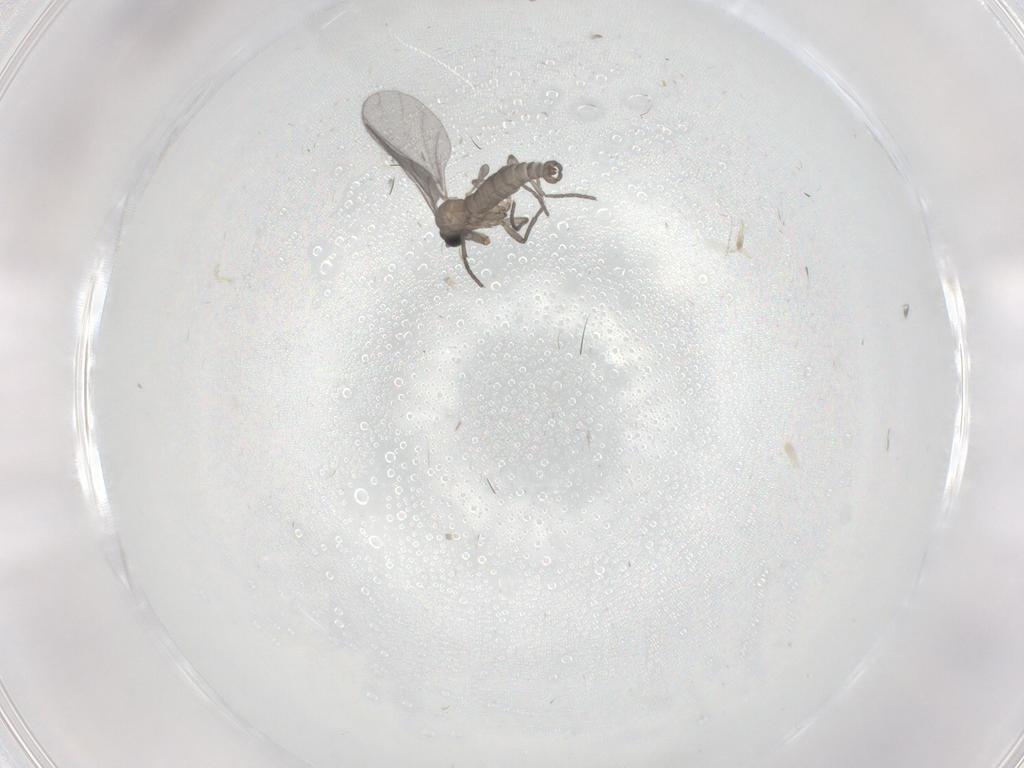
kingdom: Animalia
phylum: Arthropoda
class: Insecta
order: Diptera
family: Sciaridae
